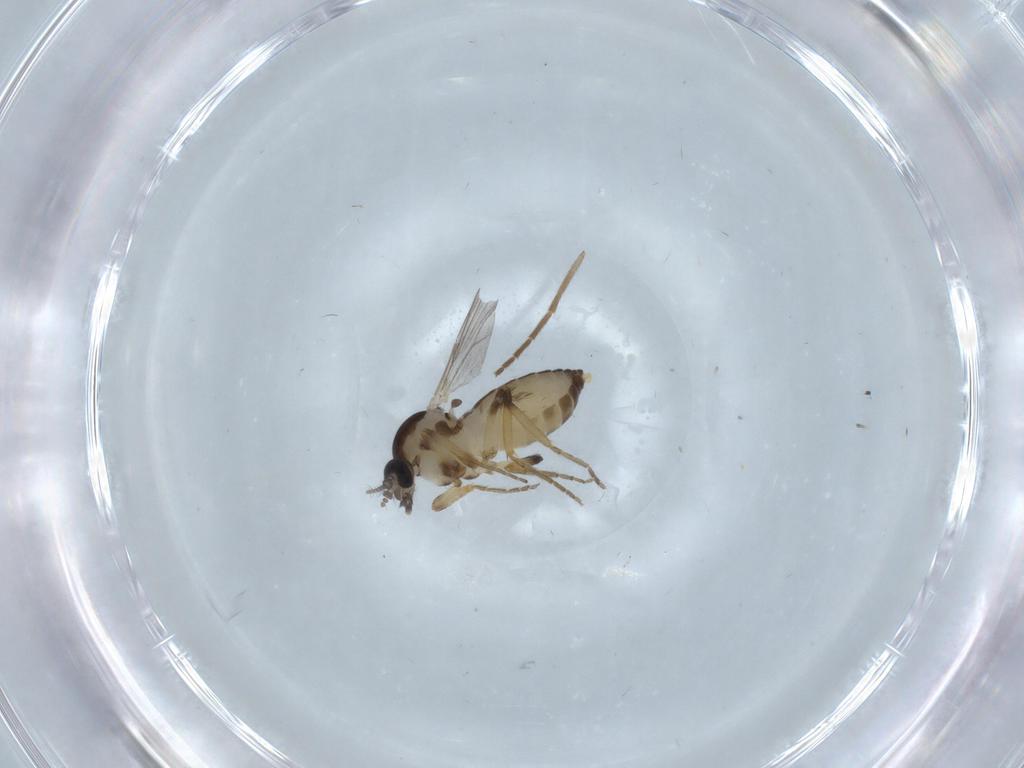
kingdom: Animalia
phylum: Arthropoda
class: Insecta
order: Diptera
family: Ceratopogonidae
